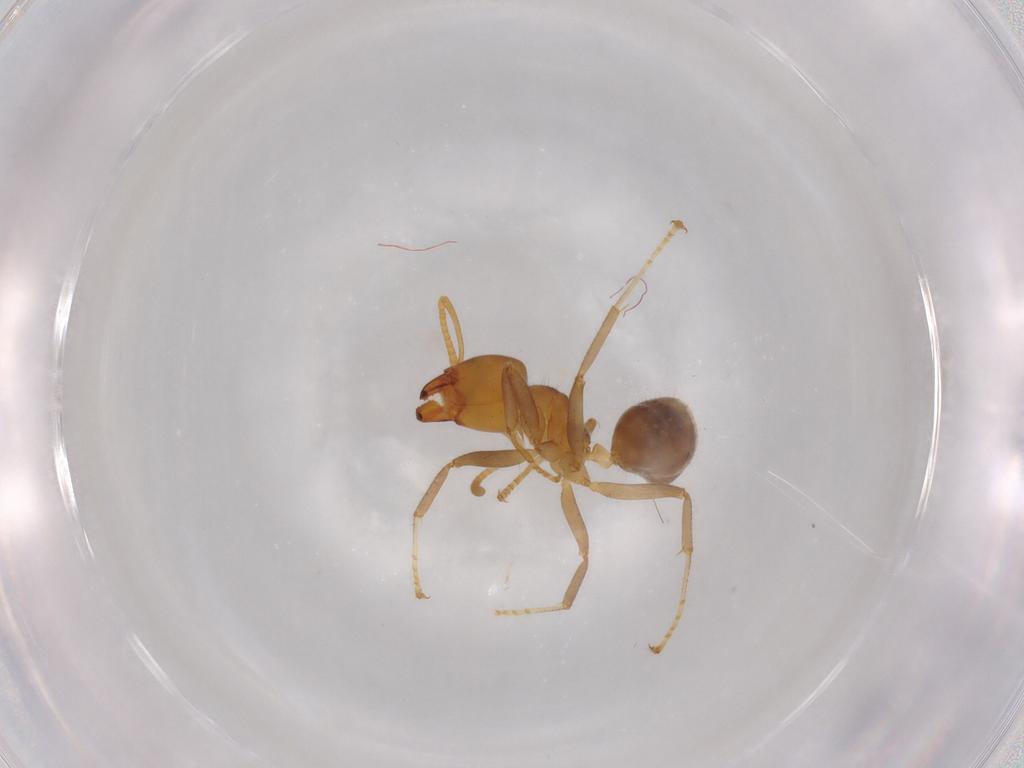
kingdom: Animalia
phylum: Arthropoda
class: Insecta
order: Hymenoptera
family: Formicidae
